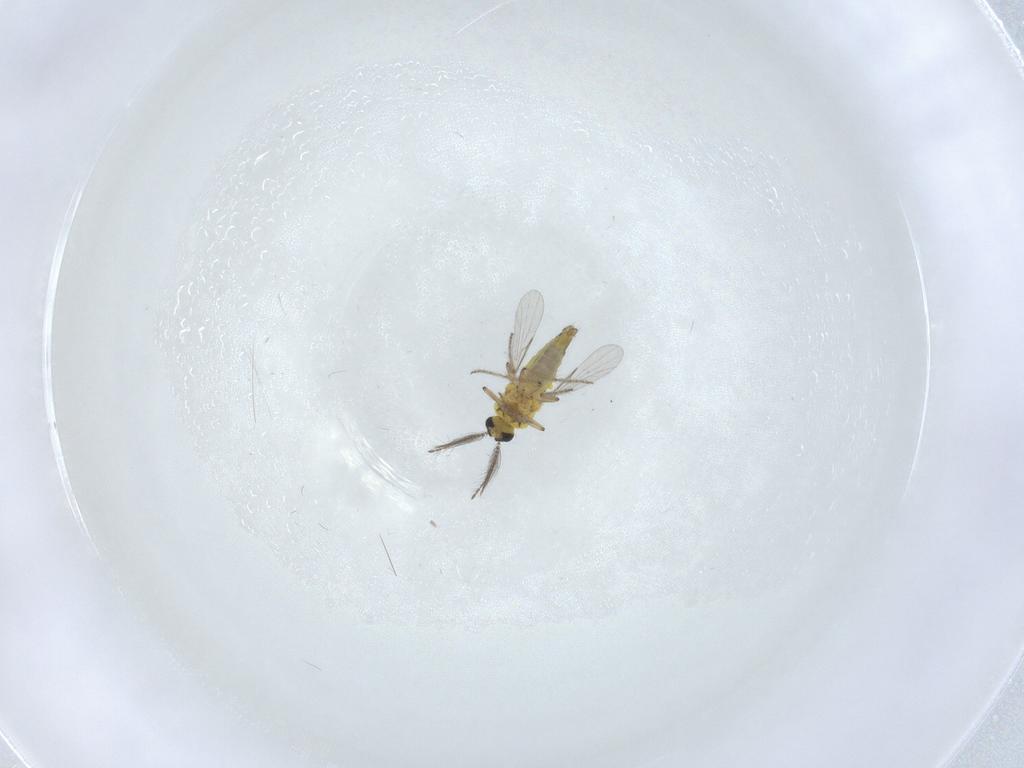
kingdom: Animalia
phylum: Arthropoda
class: Insecta
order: Diptera
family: Ceratopogonidae
